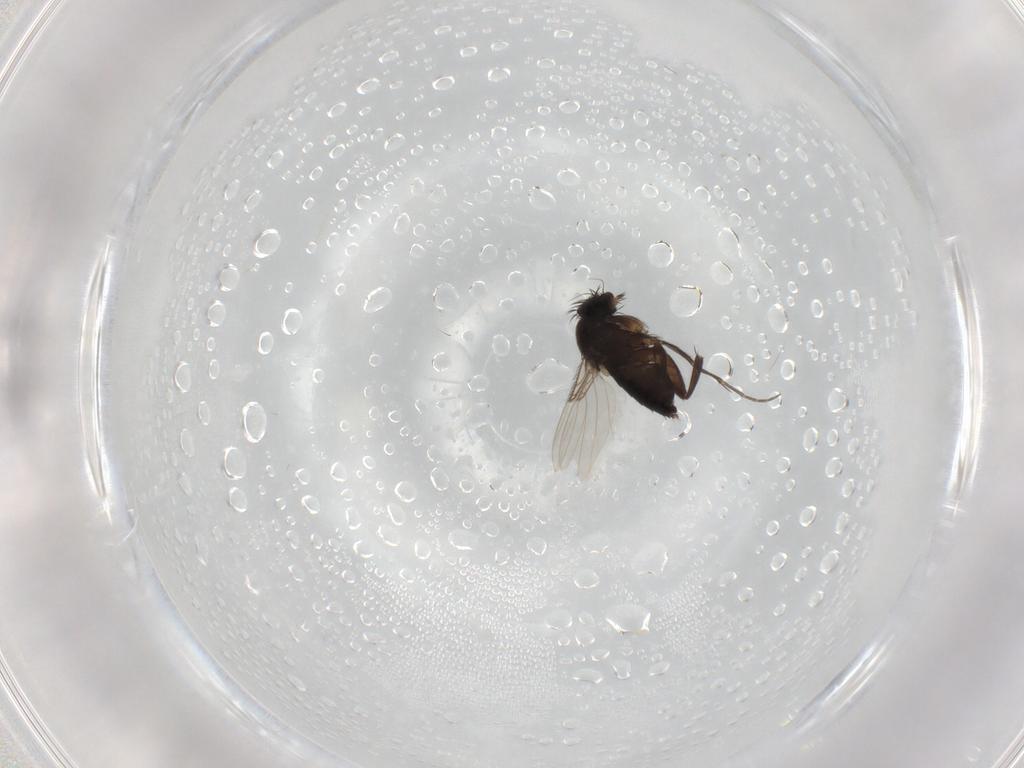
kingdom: Animalia
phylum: Arthropoda
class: Insecta
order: Diptera
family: Phoridae
